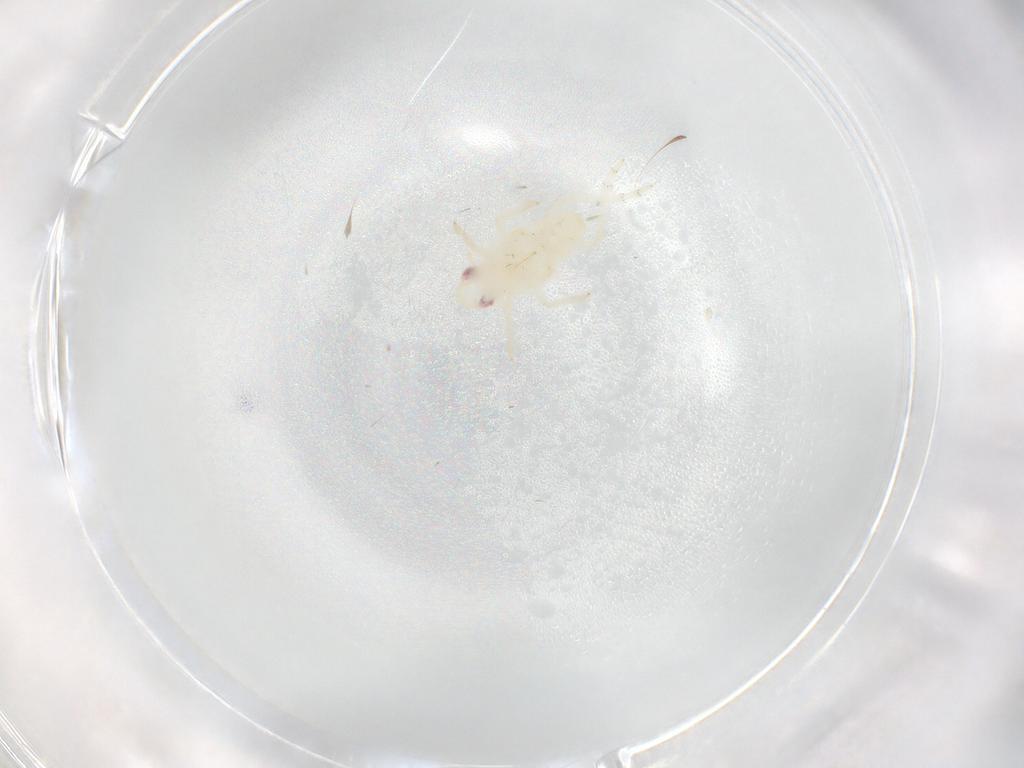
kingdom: Animalia
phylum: Arthropoda
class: Insecta
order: Hemiptera
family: Tropiduchidae
